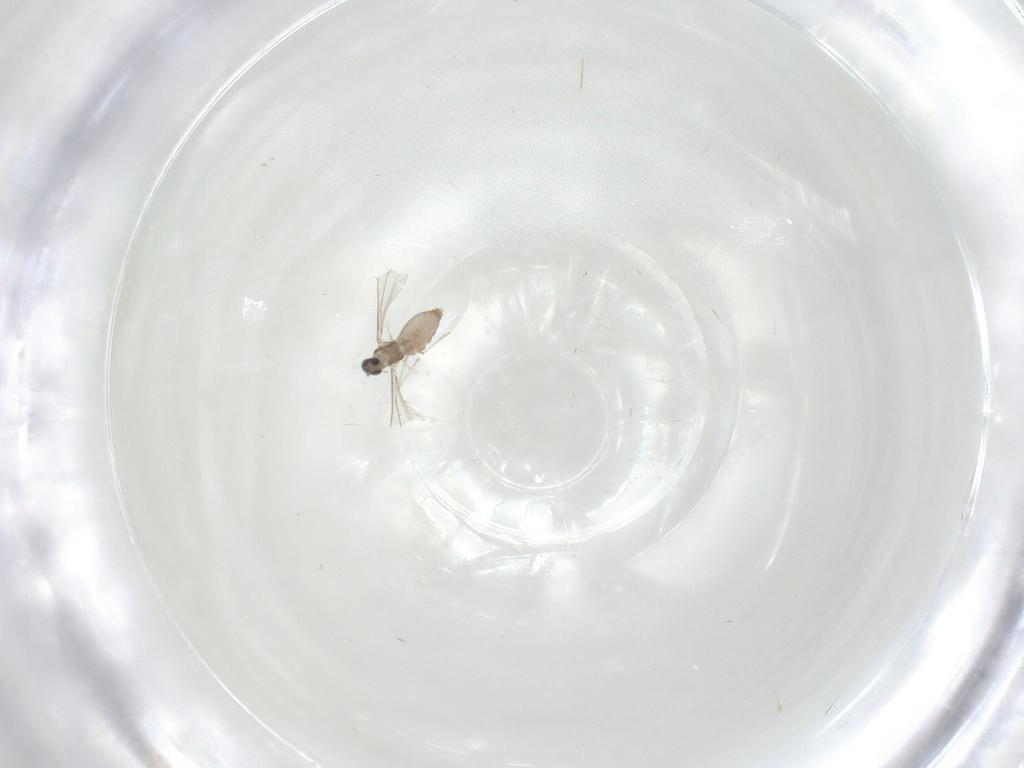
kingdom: Animalia
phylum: Arthropoda
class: Insecta
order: Diptera
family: Cecidomyiidae
